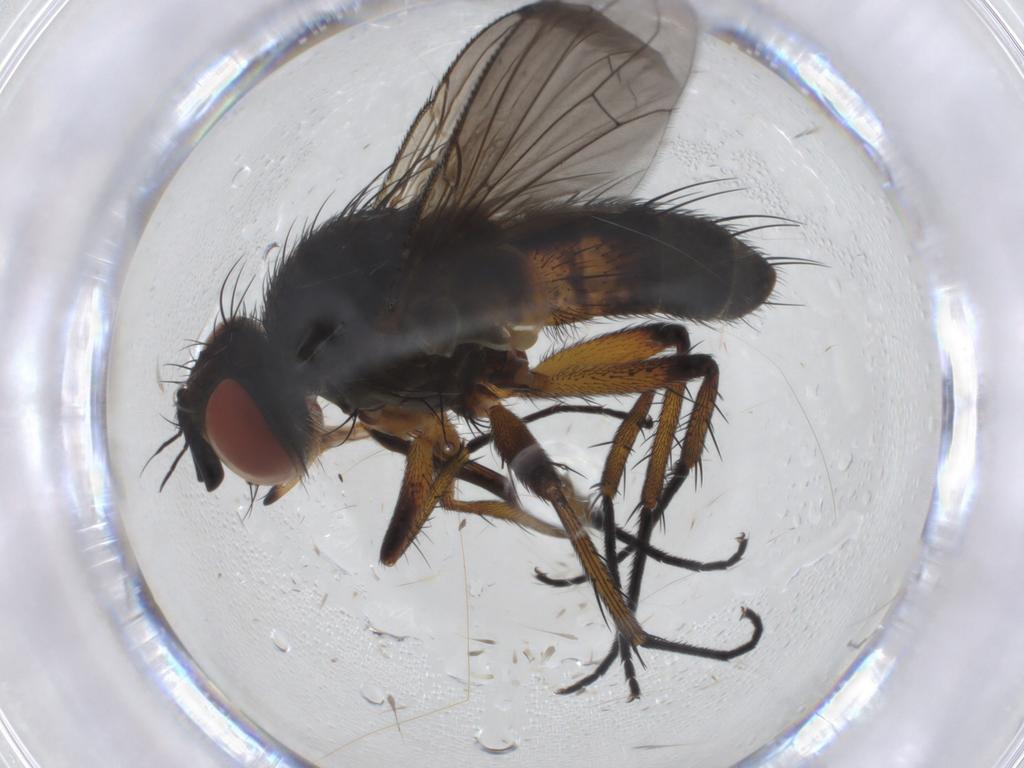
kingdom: Animalia
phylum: Arthropoda
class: Insecta
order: Diptera
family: Tachinidae
